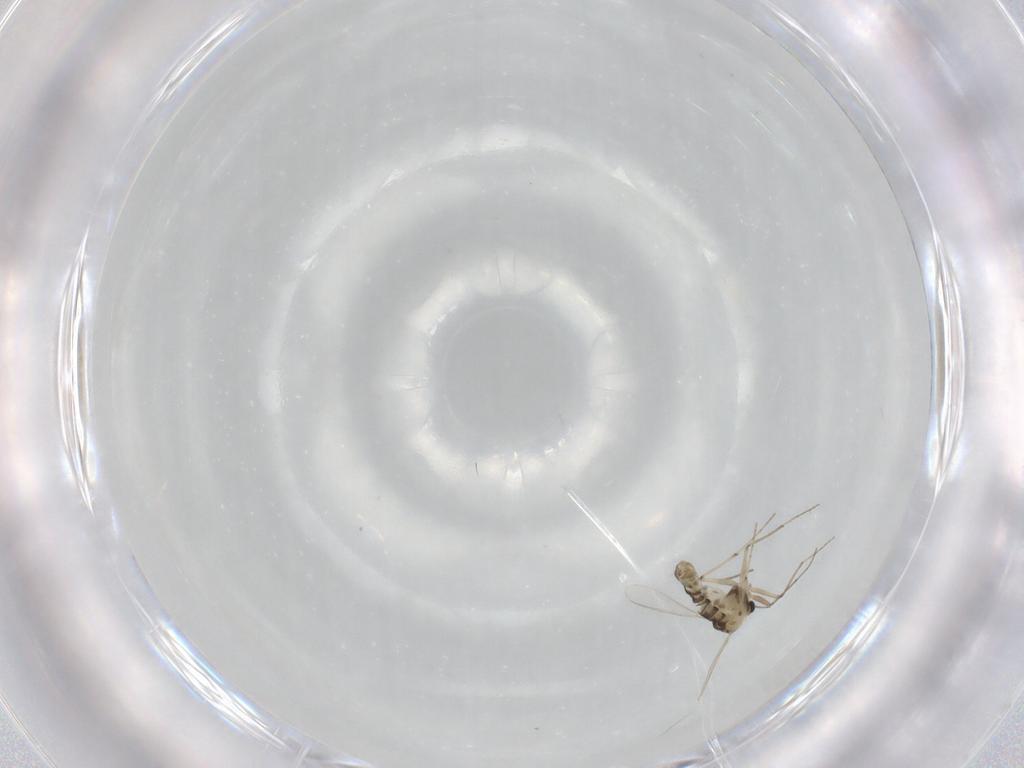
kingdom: Animalia
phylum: Arthropoda
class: Insecta
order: Diptera
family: Chironomidae
